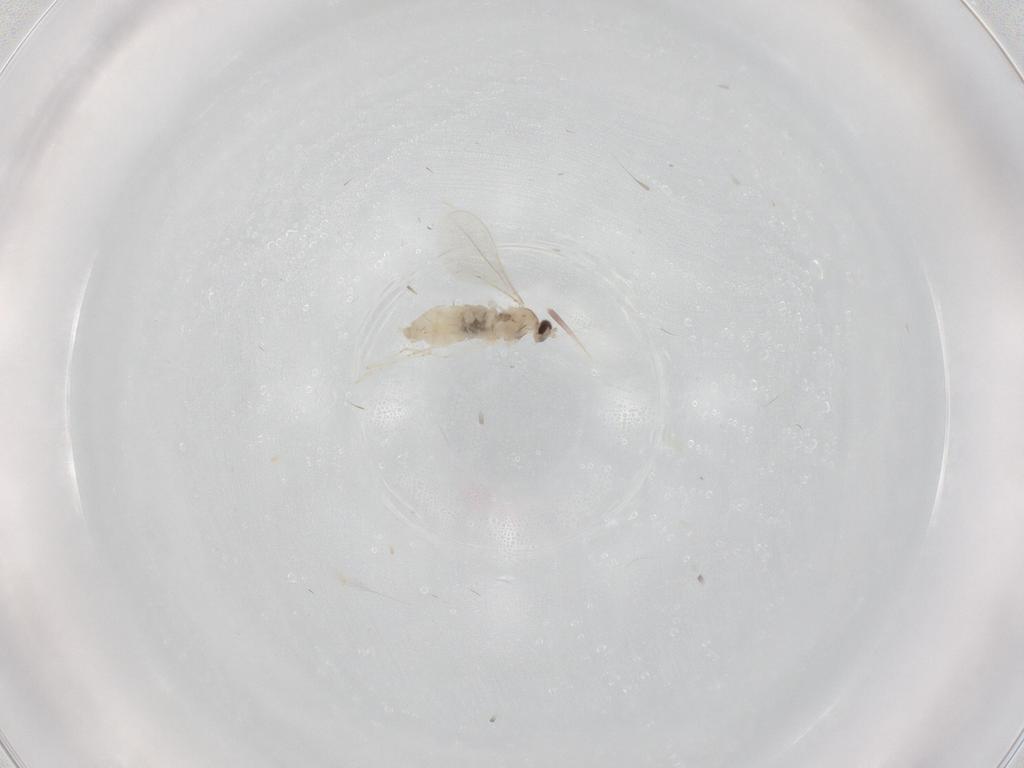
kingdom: Animalia
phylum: Arthropoda
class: Insecta
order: Diptera
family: Cecidomyiidae
